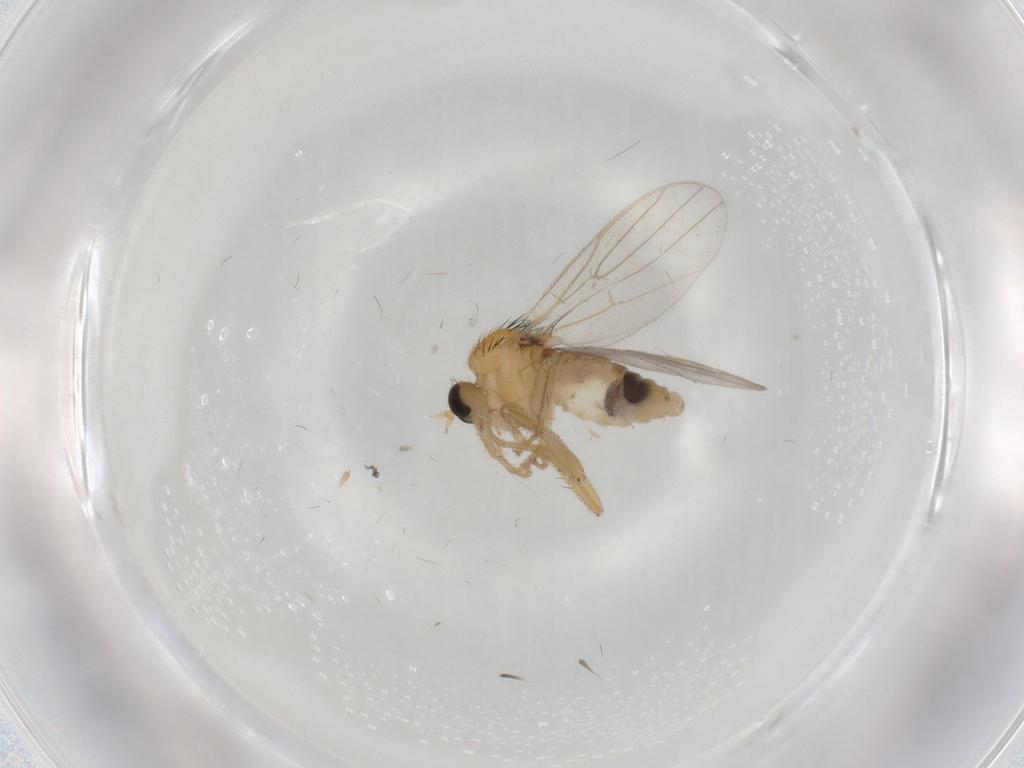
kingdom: Animalia
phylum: Arthropoda
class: Insecta
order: Diptera
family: Hybotidae
